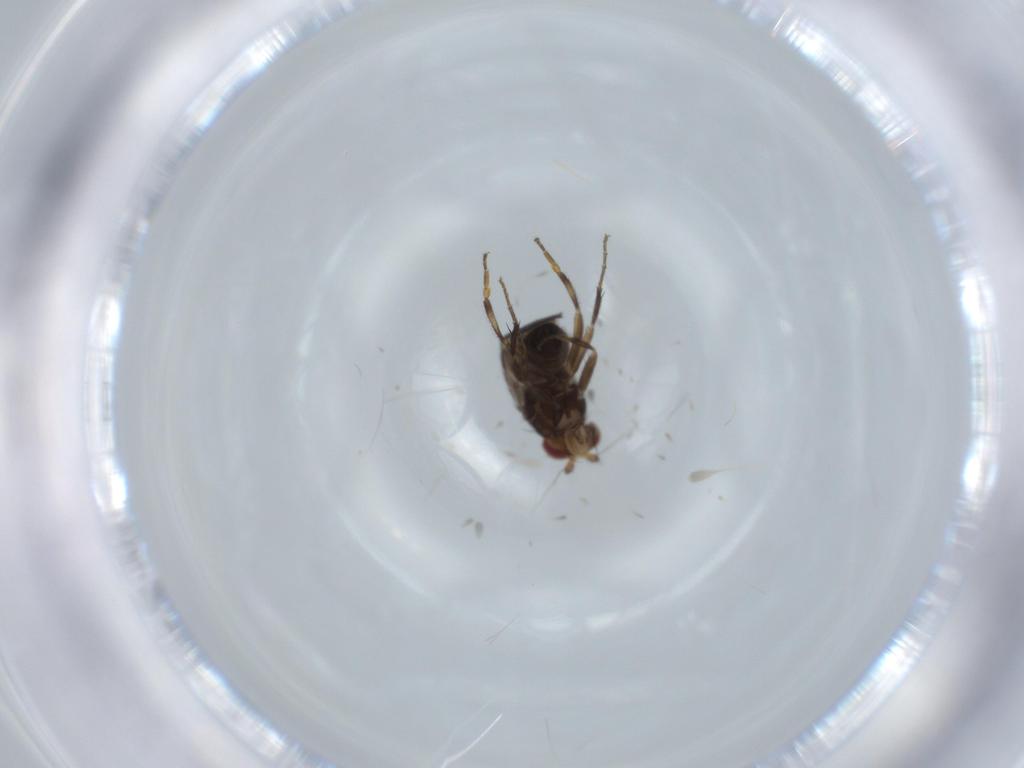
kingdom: Animalia
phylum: Arthropoda
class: Insecta
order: Diptera
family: Sphaeroceridae
